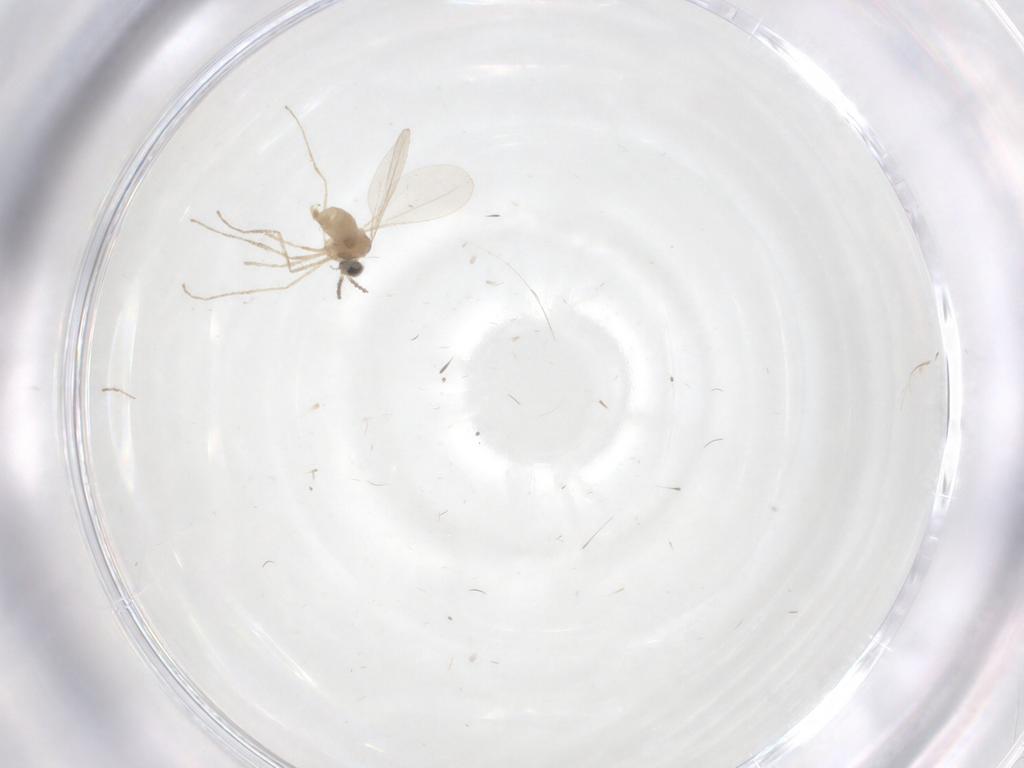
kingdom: Animalia
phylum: Arthropoda
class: Insecta
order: Diptera
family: Cecidomyiidae
